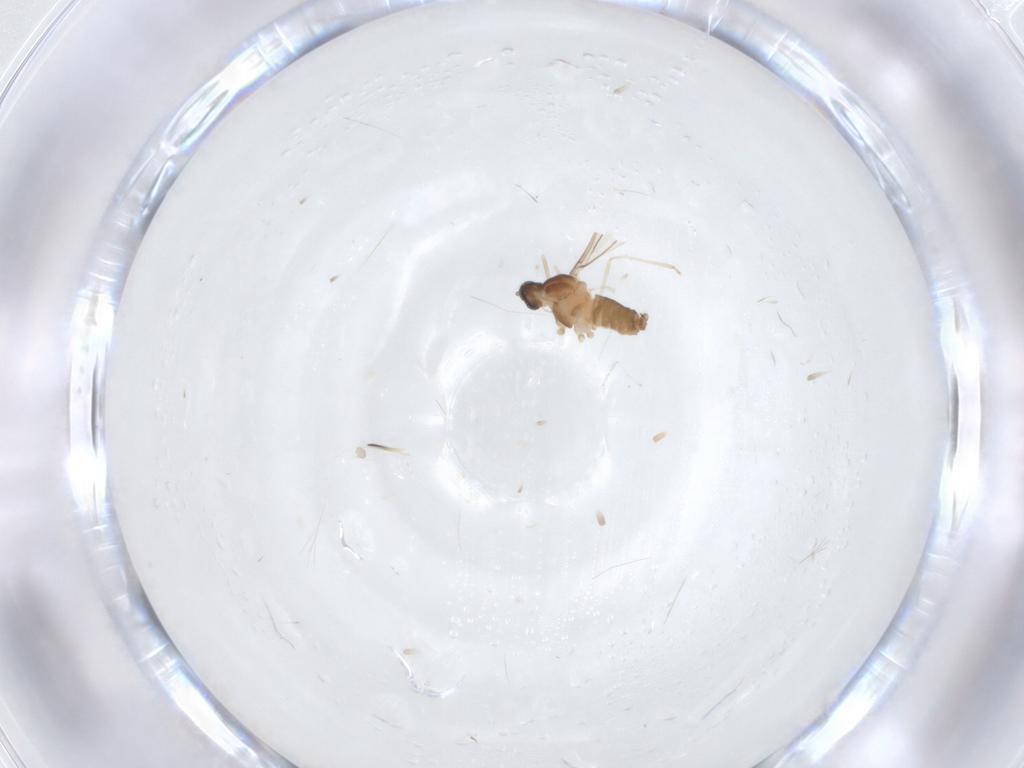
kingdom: Animalia
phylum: Arthropoda
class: Insecta
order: Diptera
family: Cecidomyiidae
